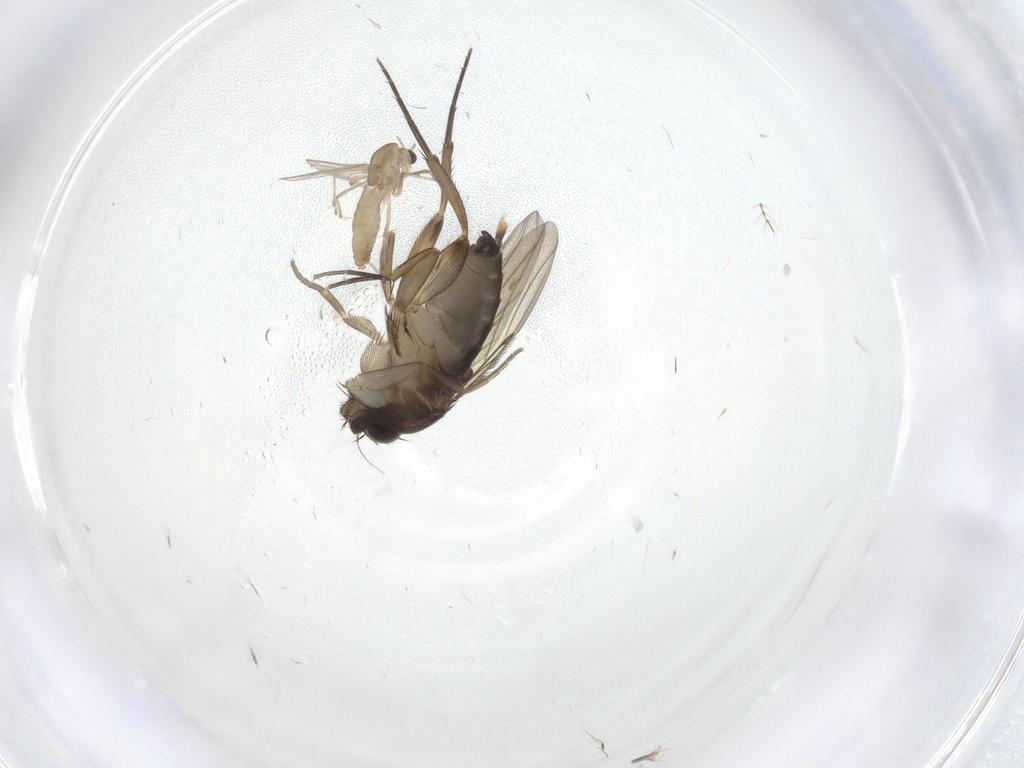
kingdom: Animalia
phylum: Arthropoda
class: Insecta
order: Diptera
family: Phoridae
